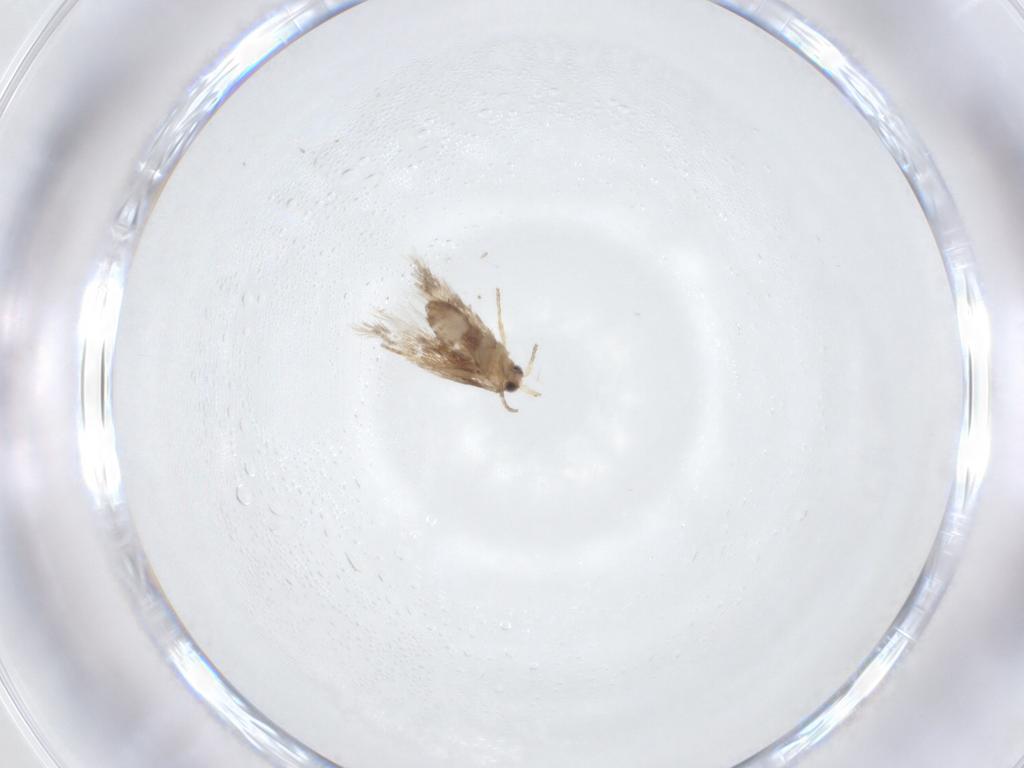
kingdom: Animalia
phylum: Arthropoda
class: Insecta
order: Lepidoptera
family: Nepticulidae
